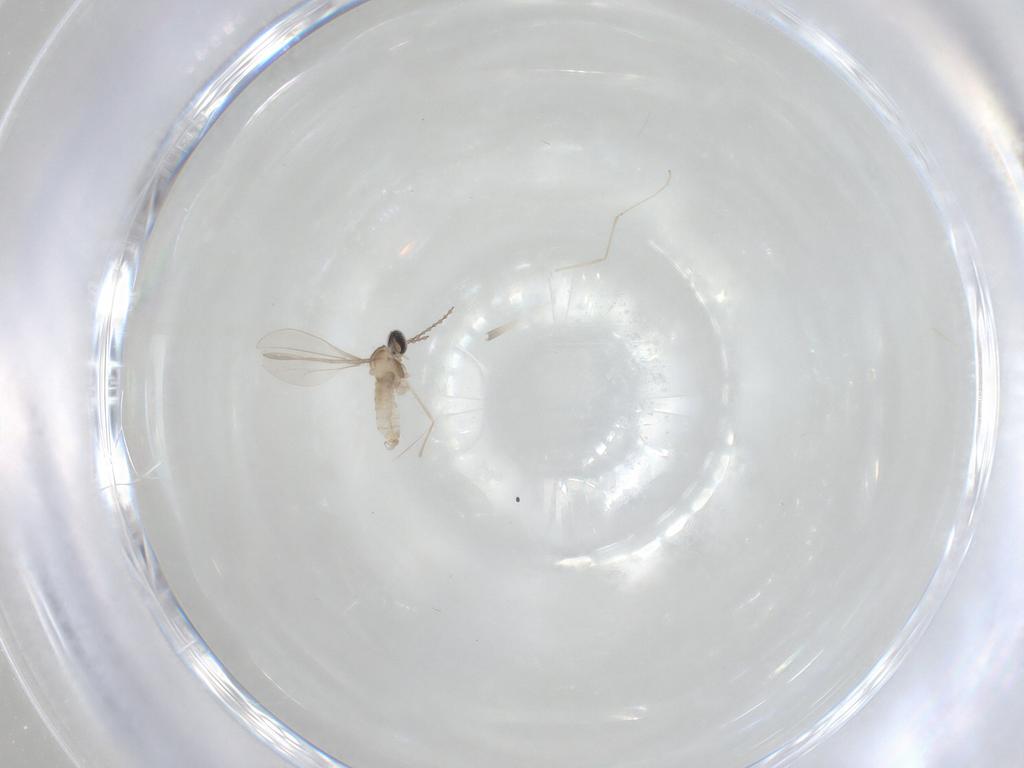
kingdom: Animalia
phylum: Arthropoda
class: Insecta
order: Diptera
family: Cecidomyiidae
